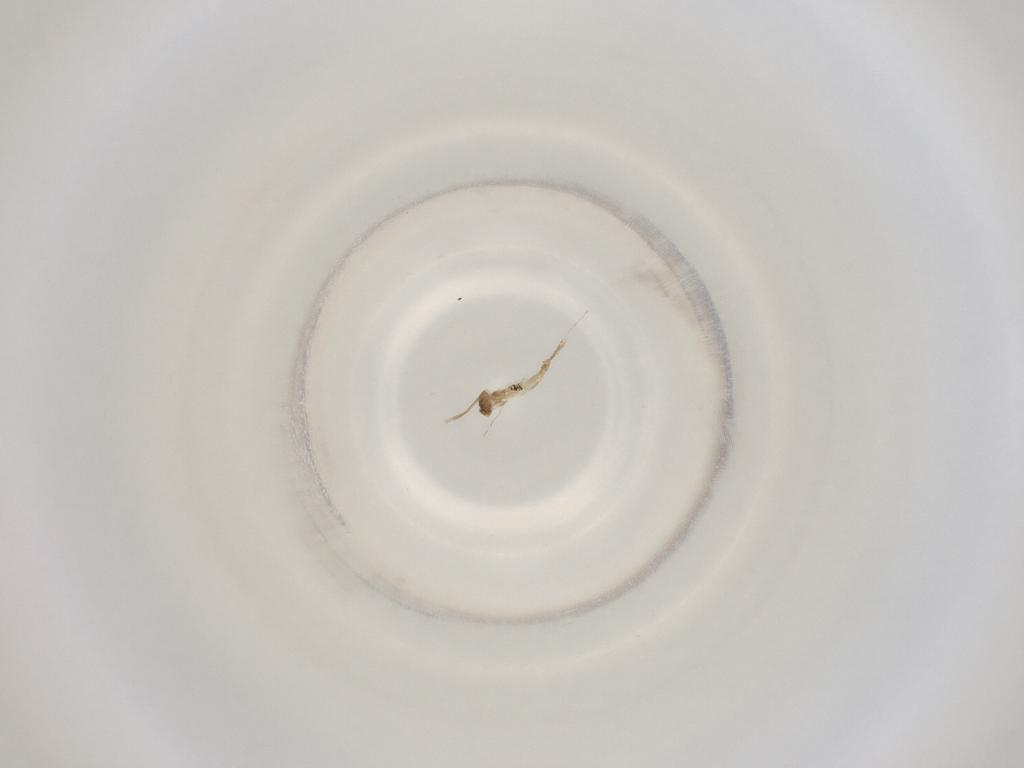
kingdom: Animalia
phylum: Arthropoda
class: Insecta
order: Diptera
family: Cecidomyiidae
